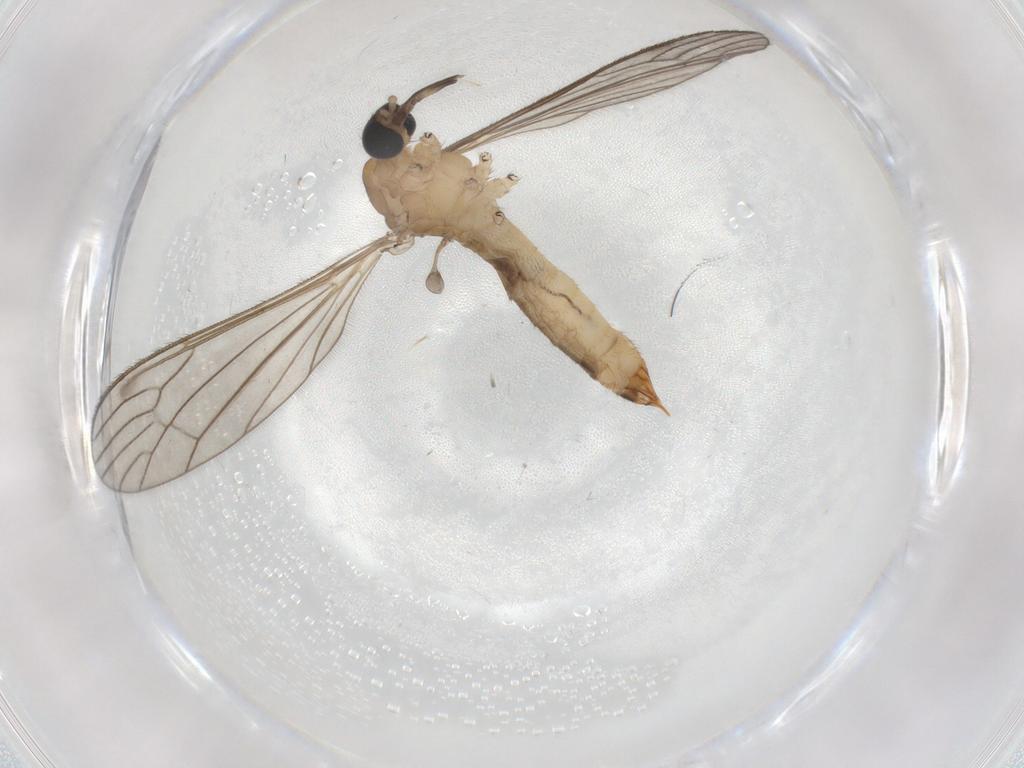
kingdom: Animalia
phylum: Arthropoda
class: Insecta
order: Diptera
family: Limoniidae
